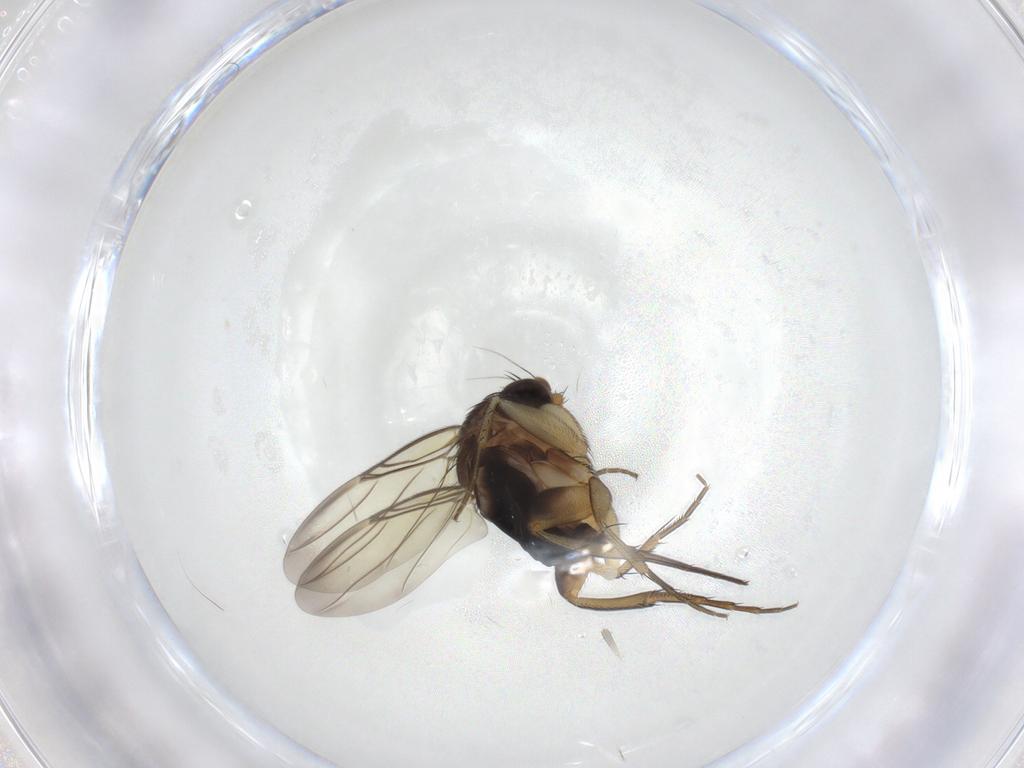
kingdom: Animalia
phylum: Arthropoda
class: Insecta
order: Diptera
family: Phoridae
